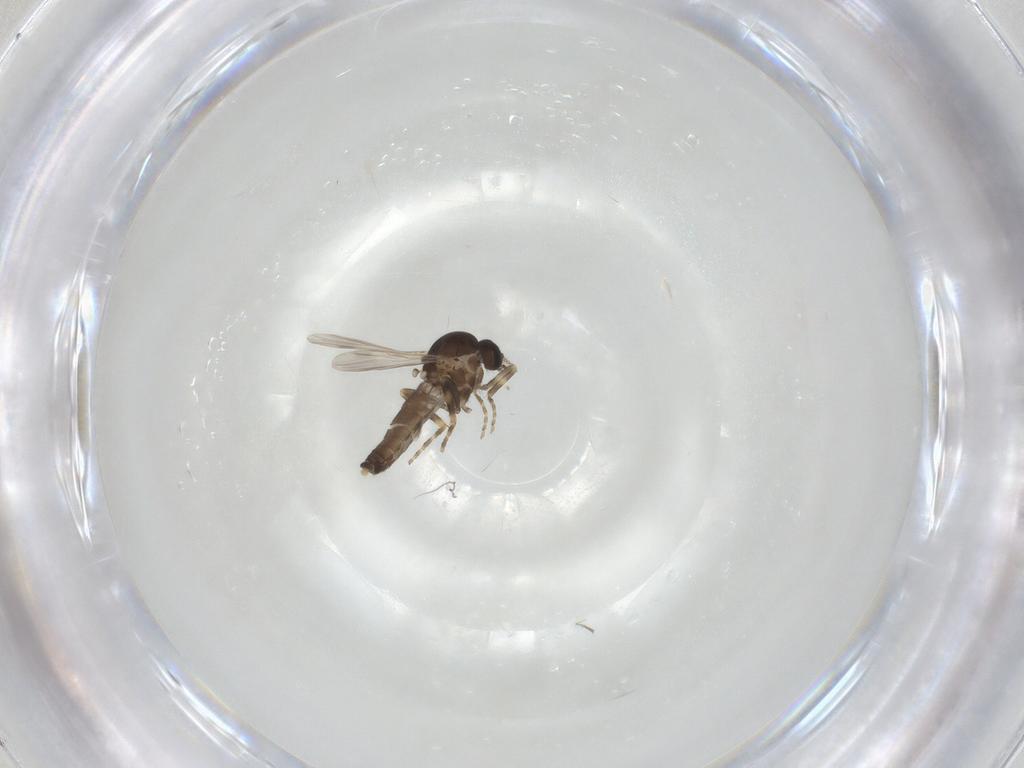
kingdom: Animalia
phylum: Arthropoda
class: Insecta
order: Diptera
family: Ceratopogonidae
